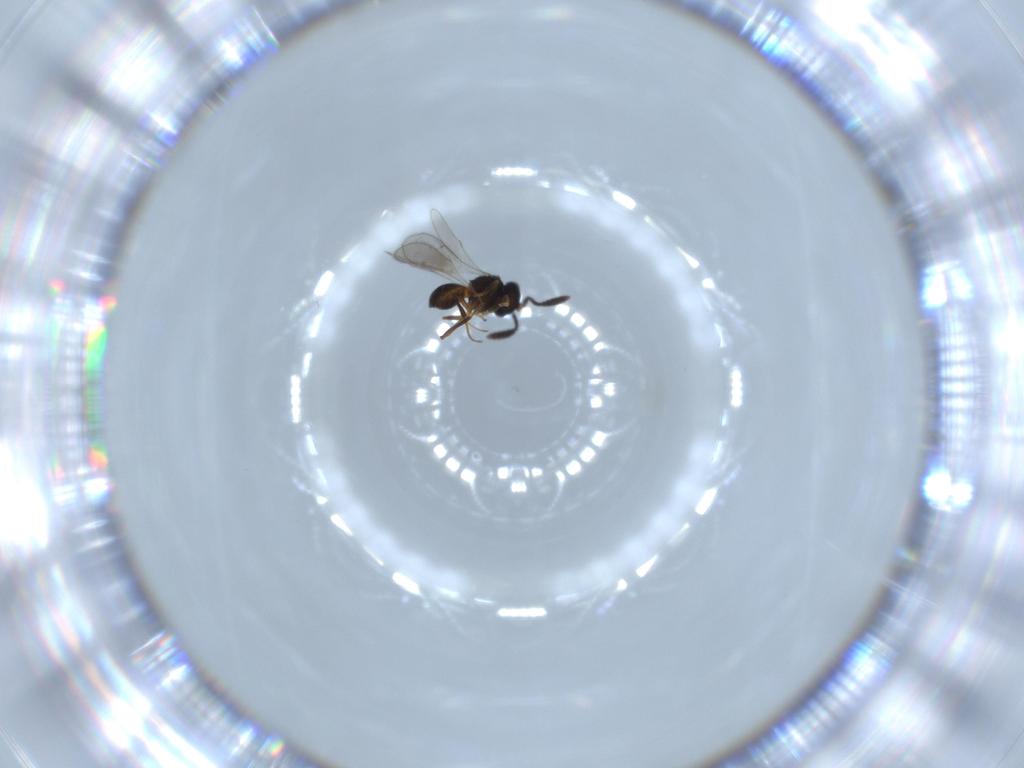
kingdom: Animalia
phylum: Arthropoda
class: Insecta
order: Hymenoptera
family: Scelionidae
